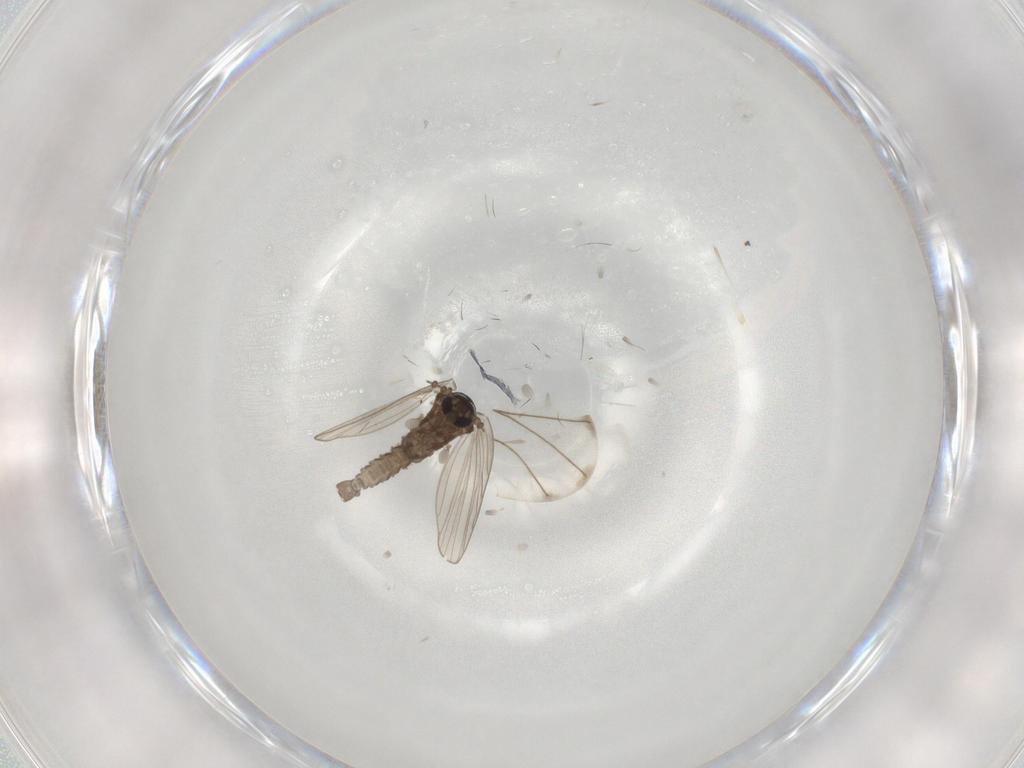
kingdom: Animalia
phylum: Arthropoda
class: Insecta
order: Diptera
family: Psychodidae
